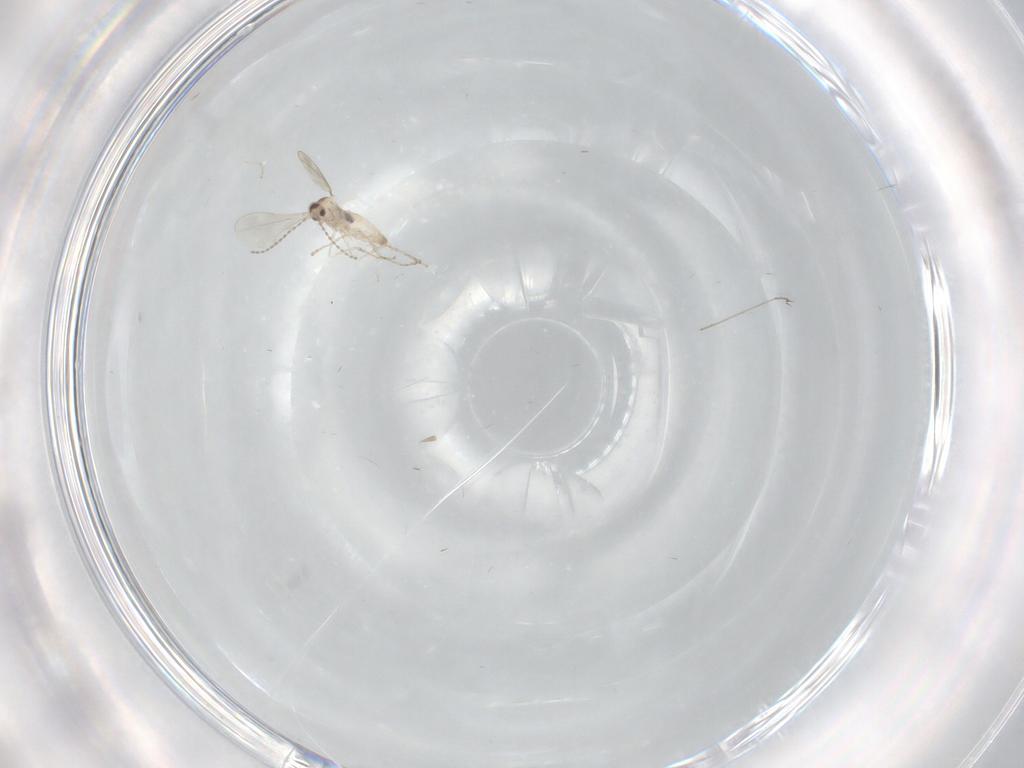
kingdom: Animalia
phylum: Arthropoda
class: Insecta
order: Diptera
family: Cecidomyiidae
